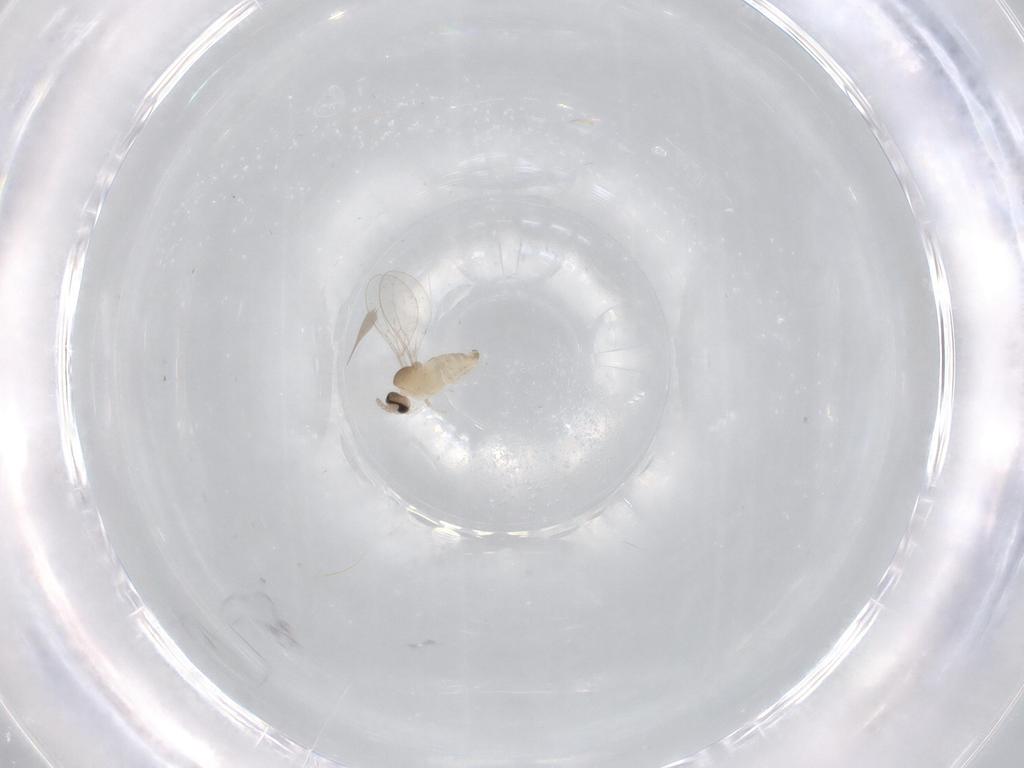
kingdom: Animalia
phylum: Arthropoda
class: Insecta
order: Diptera
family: Cecidomyiidae
